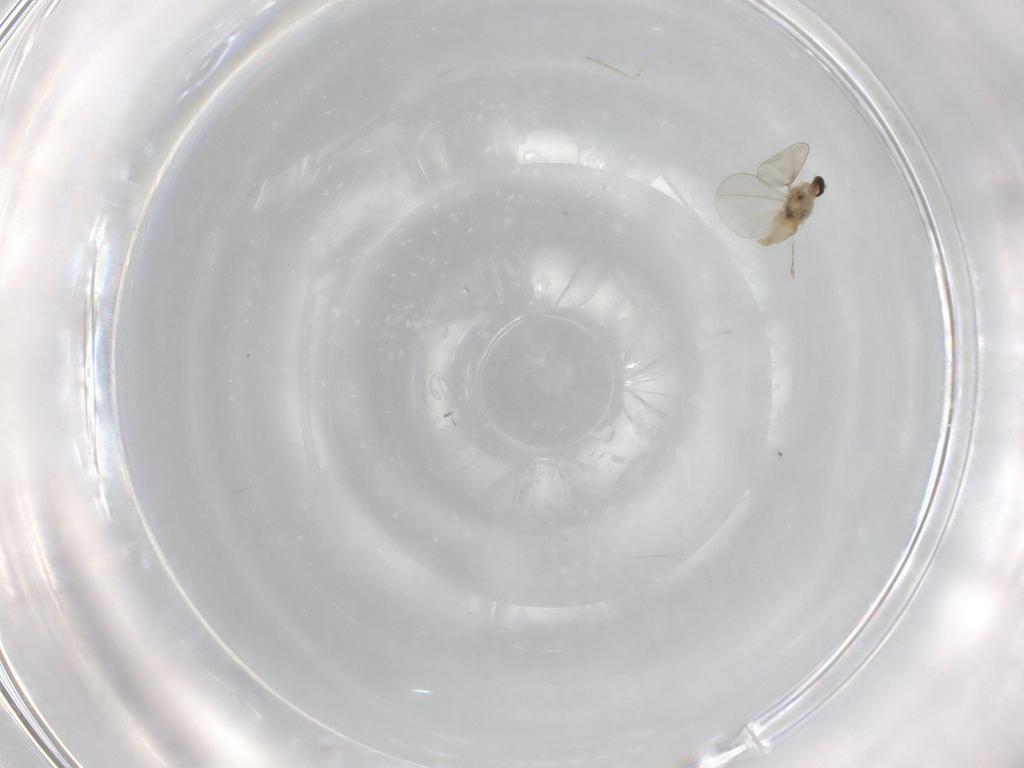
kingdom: Animalia
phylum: Arthropoda
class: Insecta
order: Diptera
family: Cecidomyiidae
